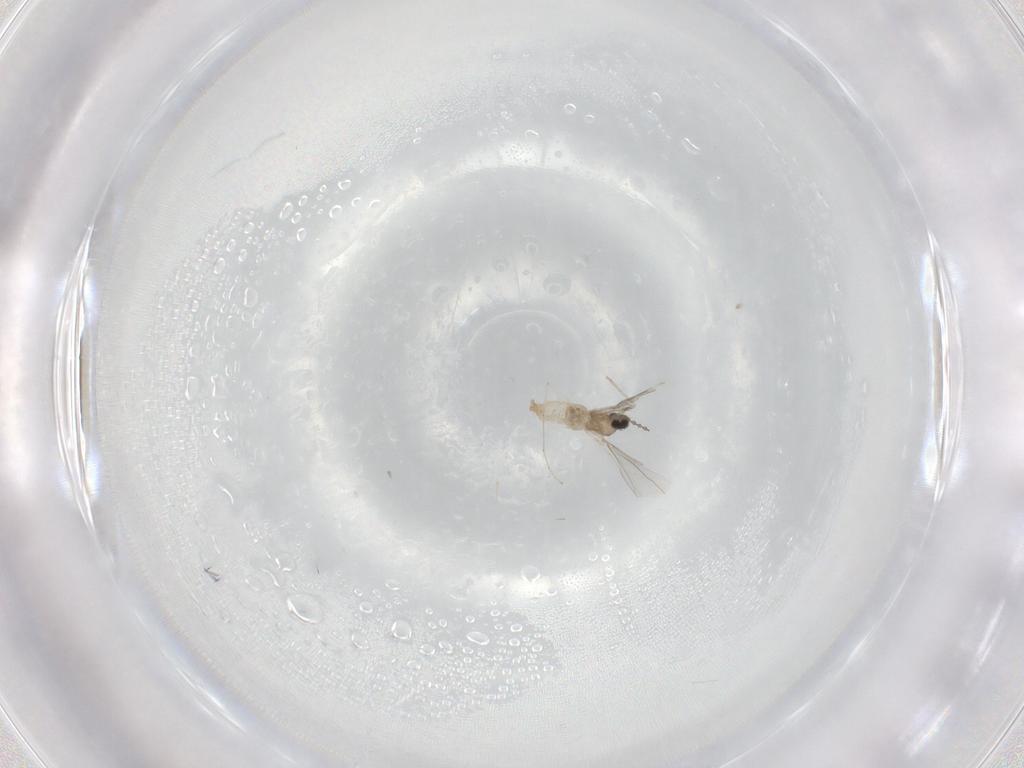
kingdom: Animalia
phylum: Arthropoda
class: Insecta
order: Diptera
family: Cecidomyiidae
